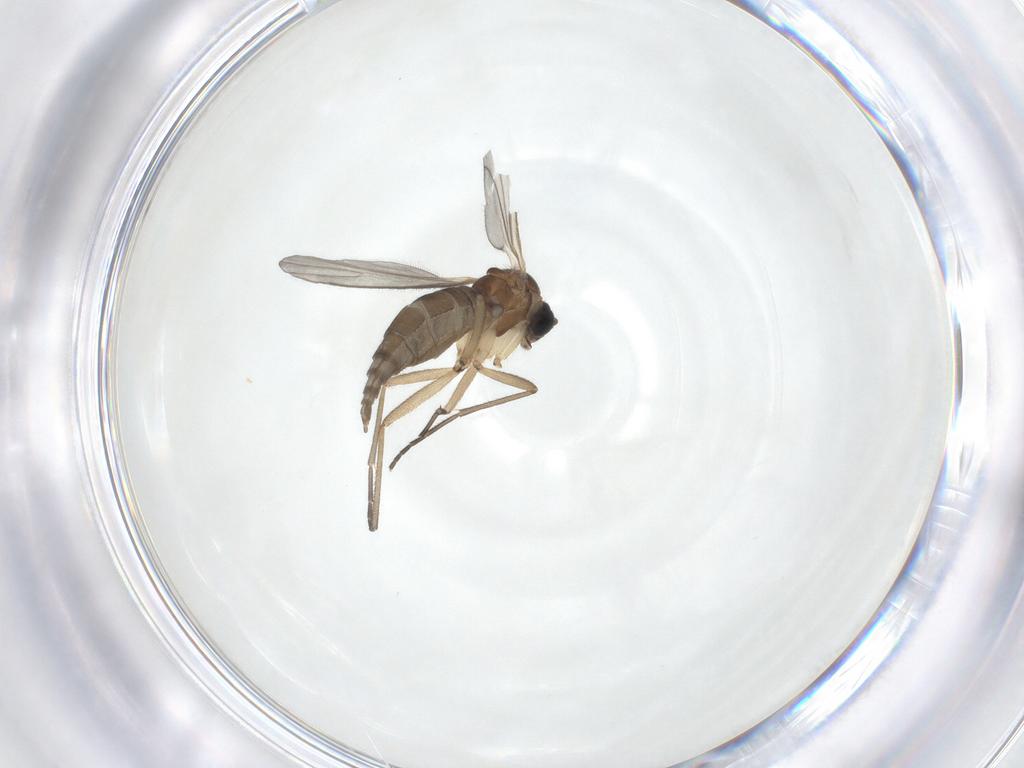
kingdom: Animalia
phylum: Arthropoda
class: Insecta
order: Diptera
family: Sciaridae
